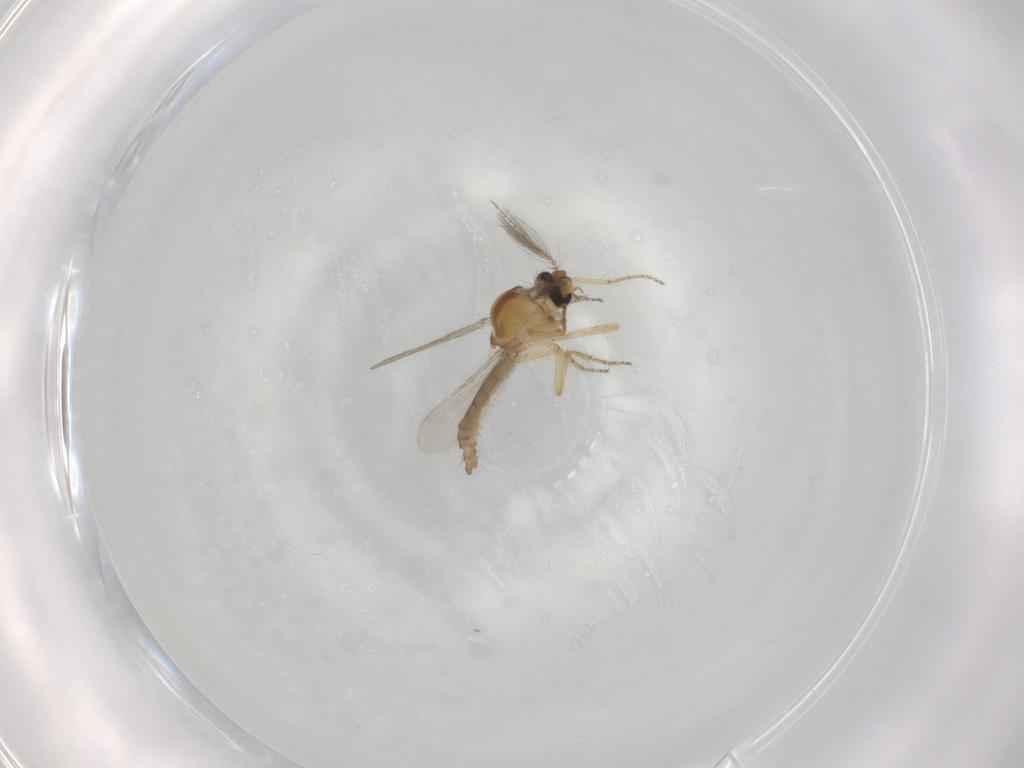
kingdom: Animalia
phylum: Arthropoda
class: Insecta
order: Diptera
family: Ceratopogonidae
